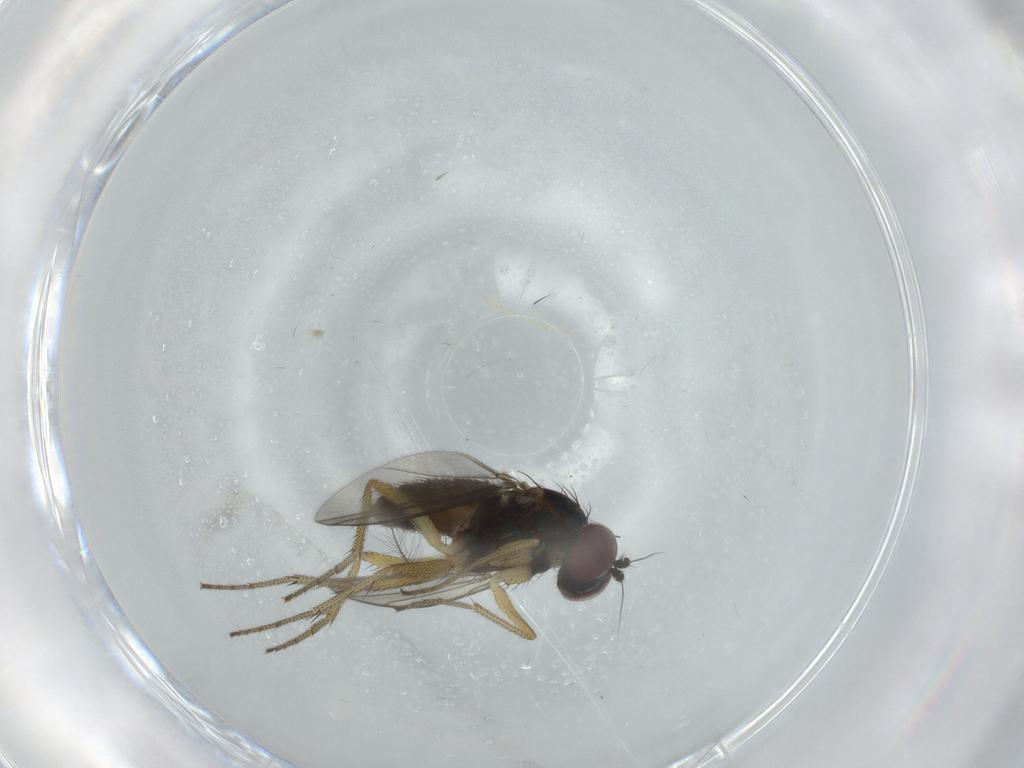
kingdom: Animalia
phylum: Arthropoda
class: Insecta
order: Diptera
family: Dolichopodidae
